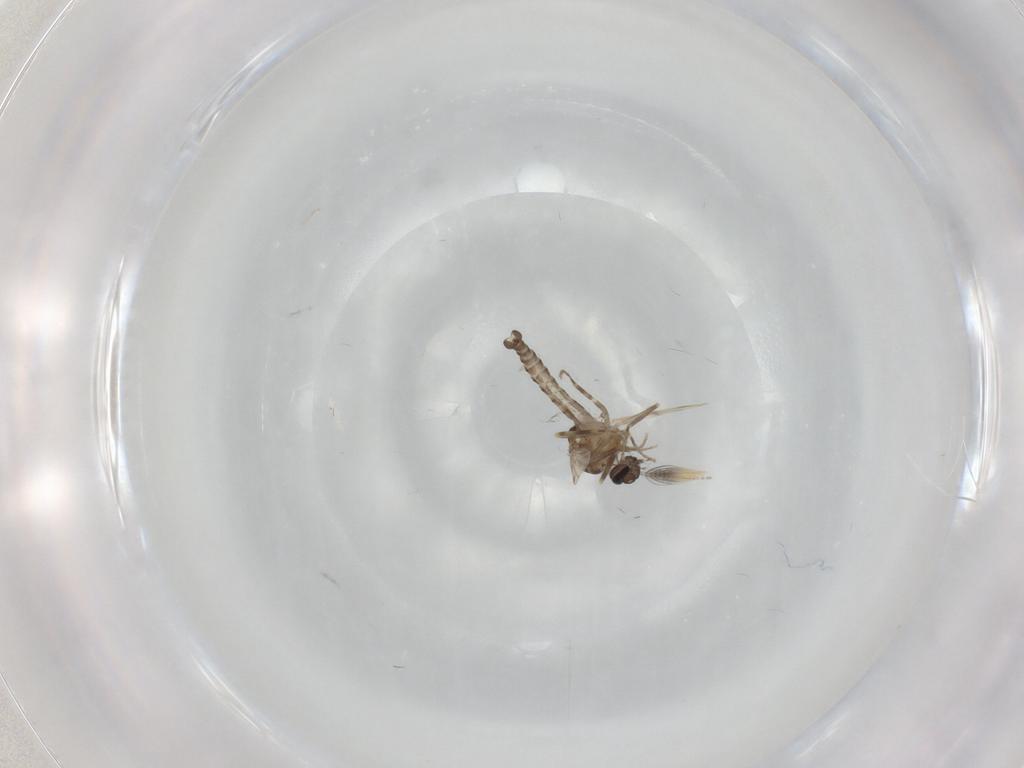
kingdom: Animalia
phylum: Arthropoda
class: Insecta
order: Diptera
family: Ceratopogonidae
